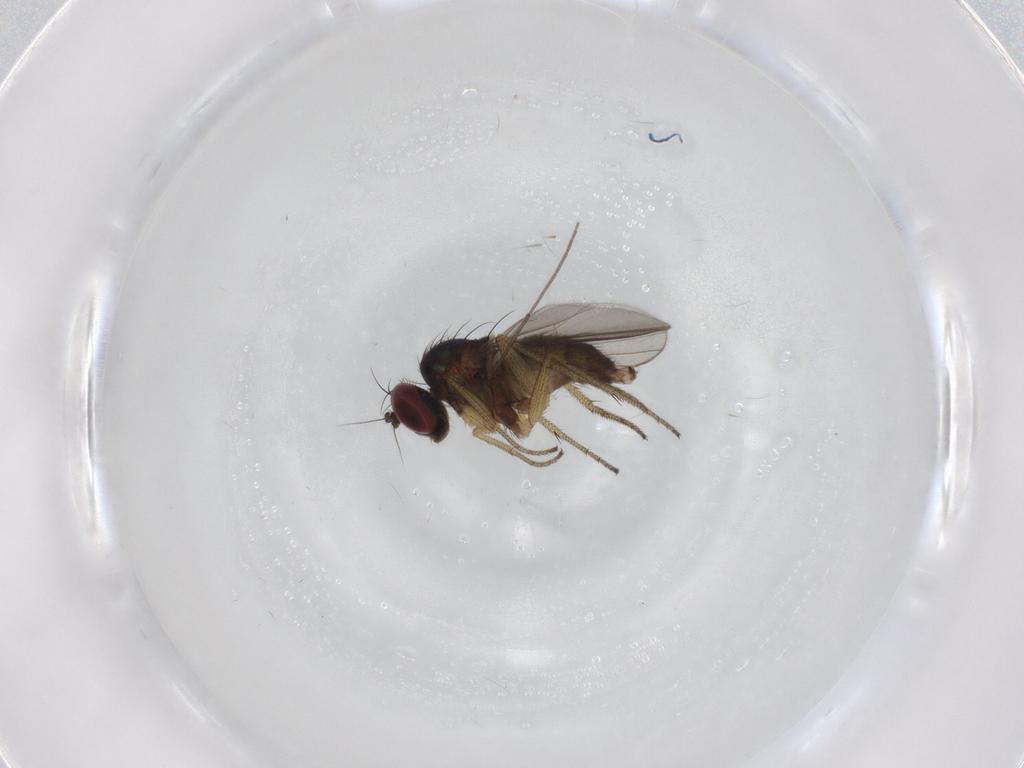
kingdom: Animalia
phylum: Arthropoda
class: Insecta
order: Diptera
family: Dolichopodidae
